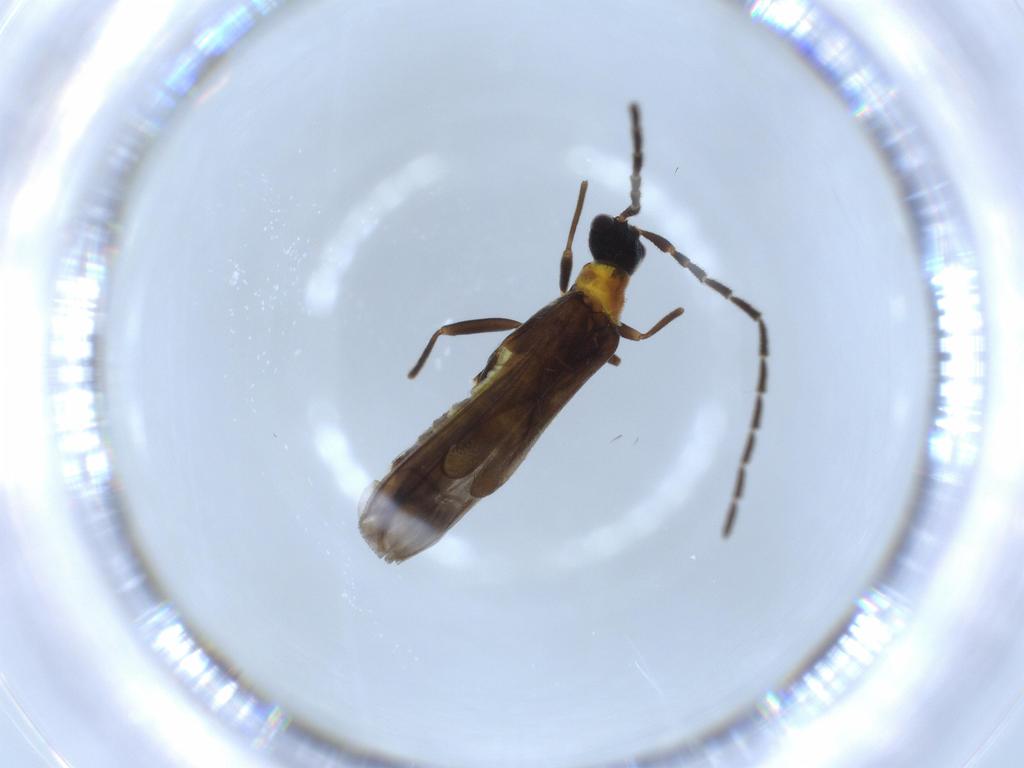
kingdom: Animalia
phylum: Arthropoda
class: Insecta
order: Coleoptera
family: Cantharidae
